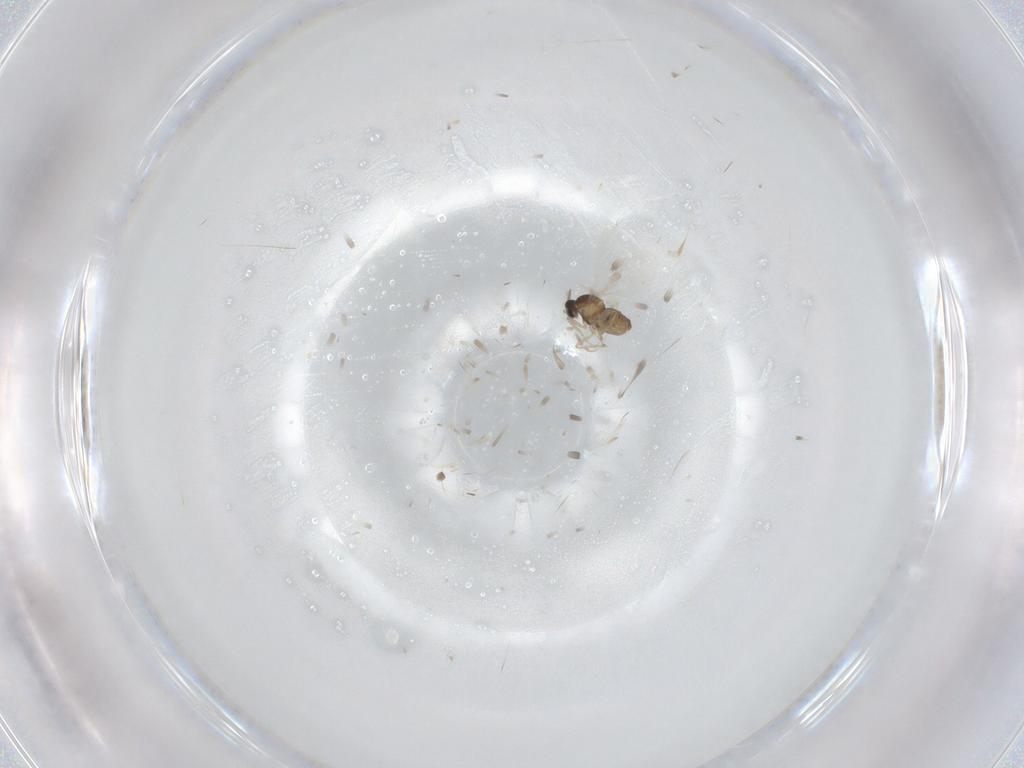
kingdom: Animalia
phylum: Arthropoda
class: Insecta
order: Diptera
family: Cecidomyiidae
